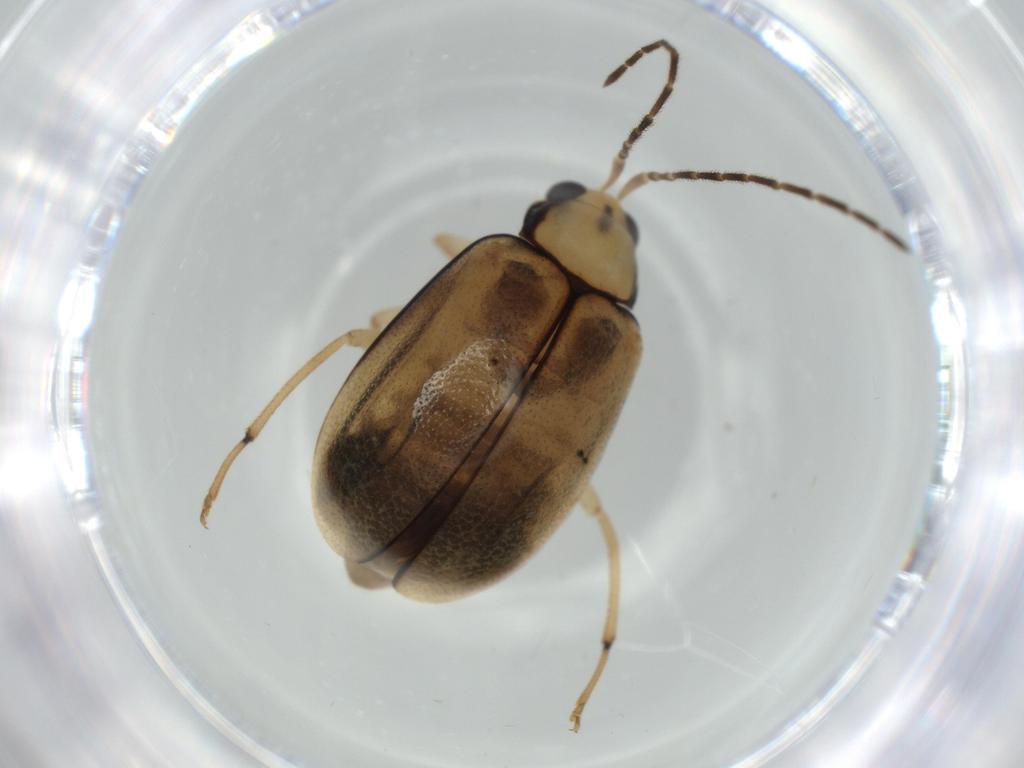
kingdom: Animalia
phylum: Arthropoda
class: Insecta
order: Coleoptera
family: Chrysomelidae
